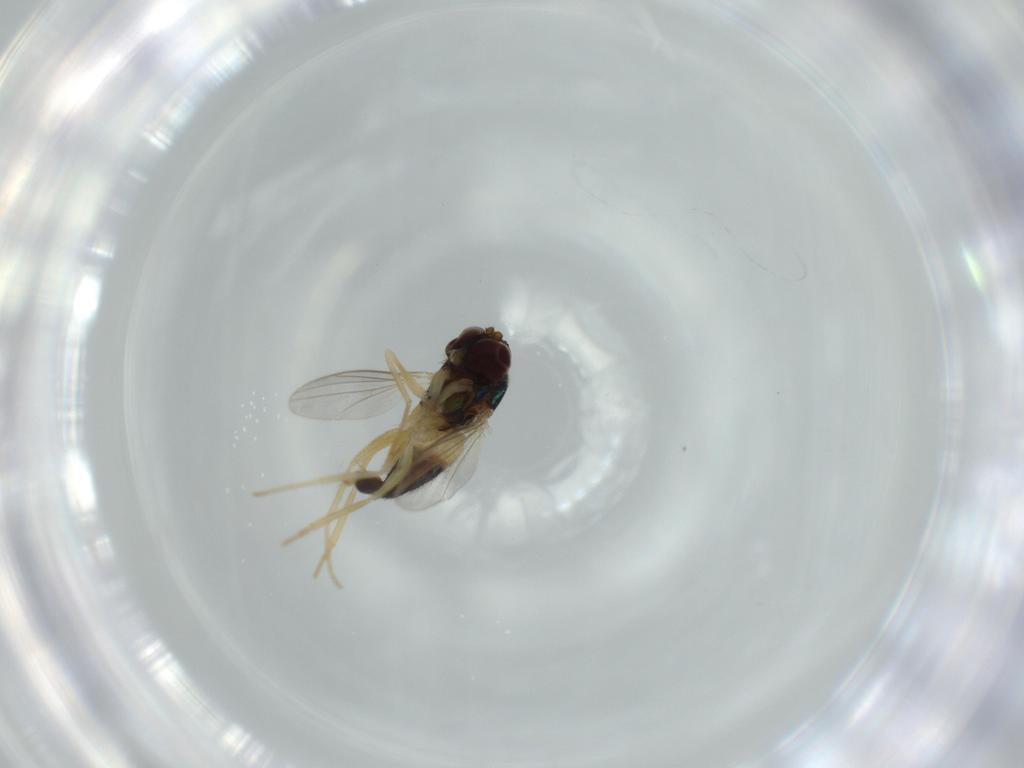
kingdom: Animalia
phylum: Arthropoda
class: Insecta
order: Diptera
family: Dolichopodidae
